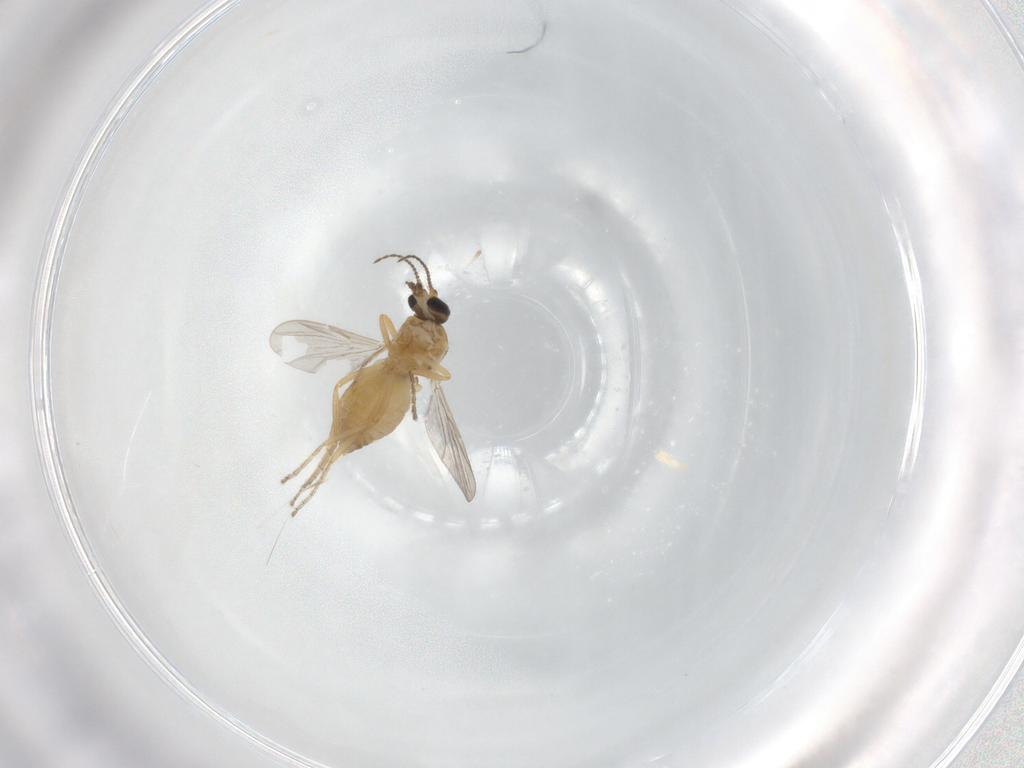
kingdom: Animalia
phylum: Arthropoda
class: Insecta
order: Diptera
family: Ceratopogonidae
